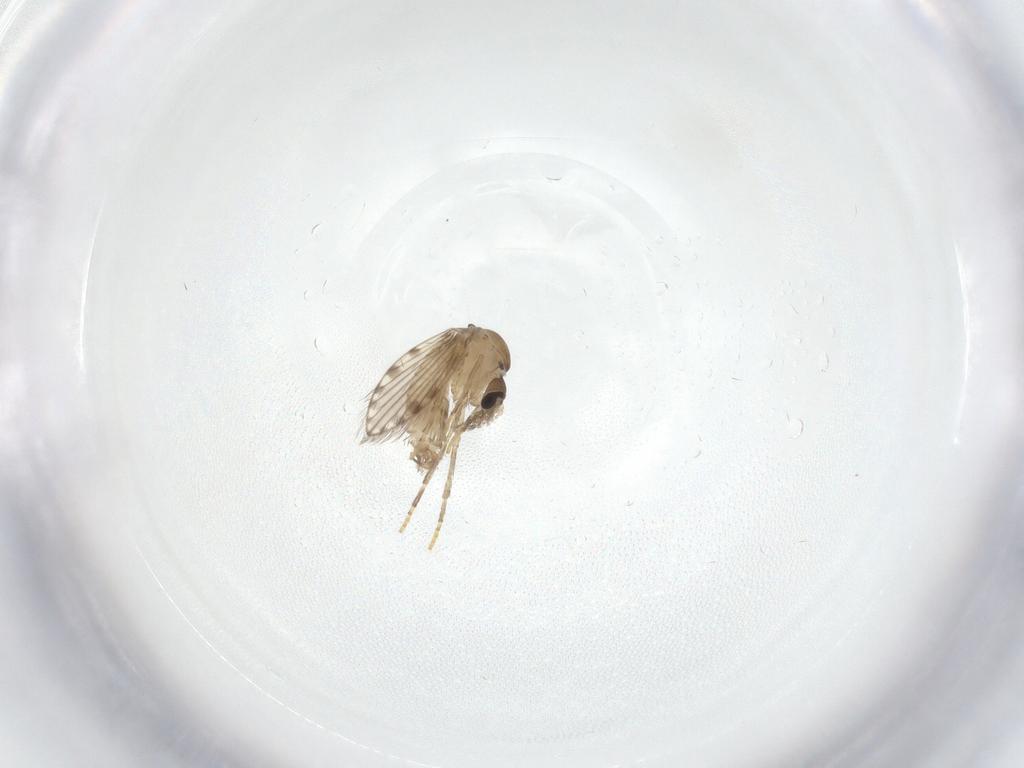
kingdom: Animalia
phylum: Arthropoda
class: Insecta
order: Diptera
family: Psychodidae
